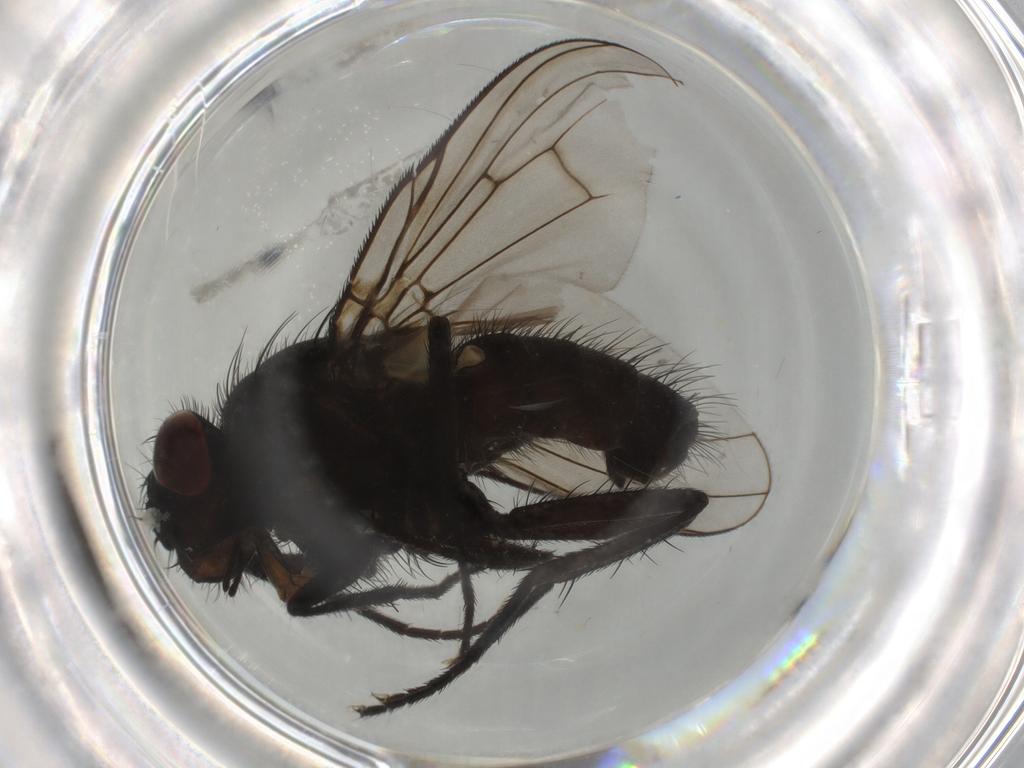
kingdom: Animalia
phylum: Arthropoda
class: Insecta
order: Diptera
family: Muscidae
